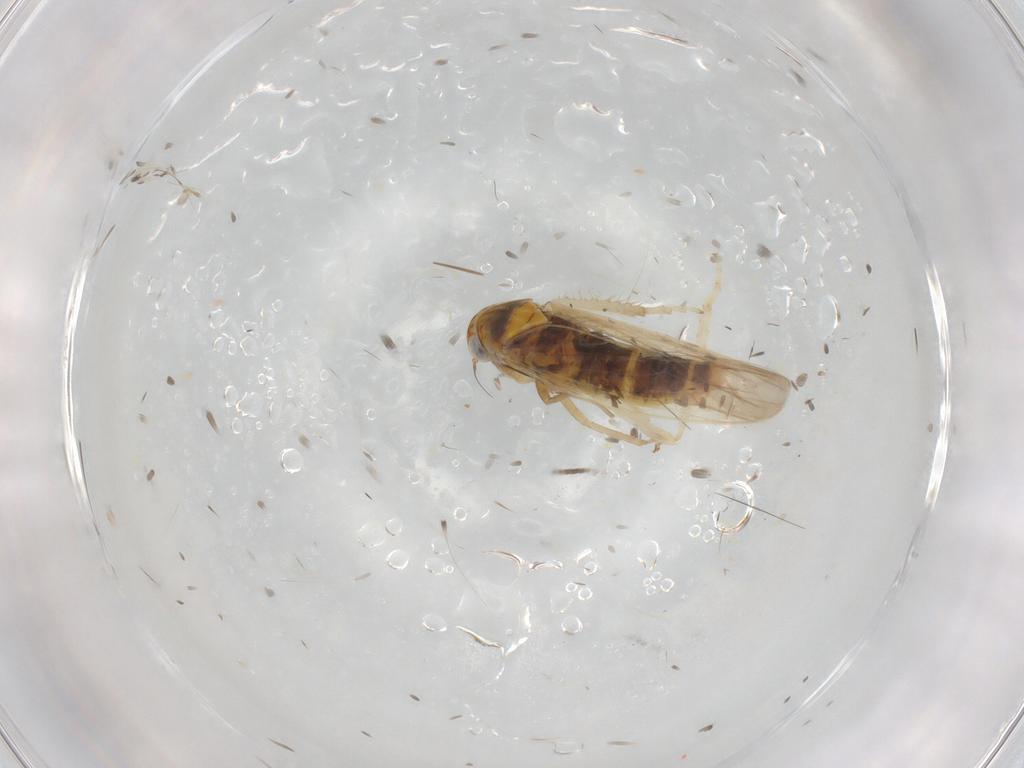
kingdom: Animalia
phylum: Arthropoda
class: Insecta
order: Hemiptera
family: Cicadellidae
